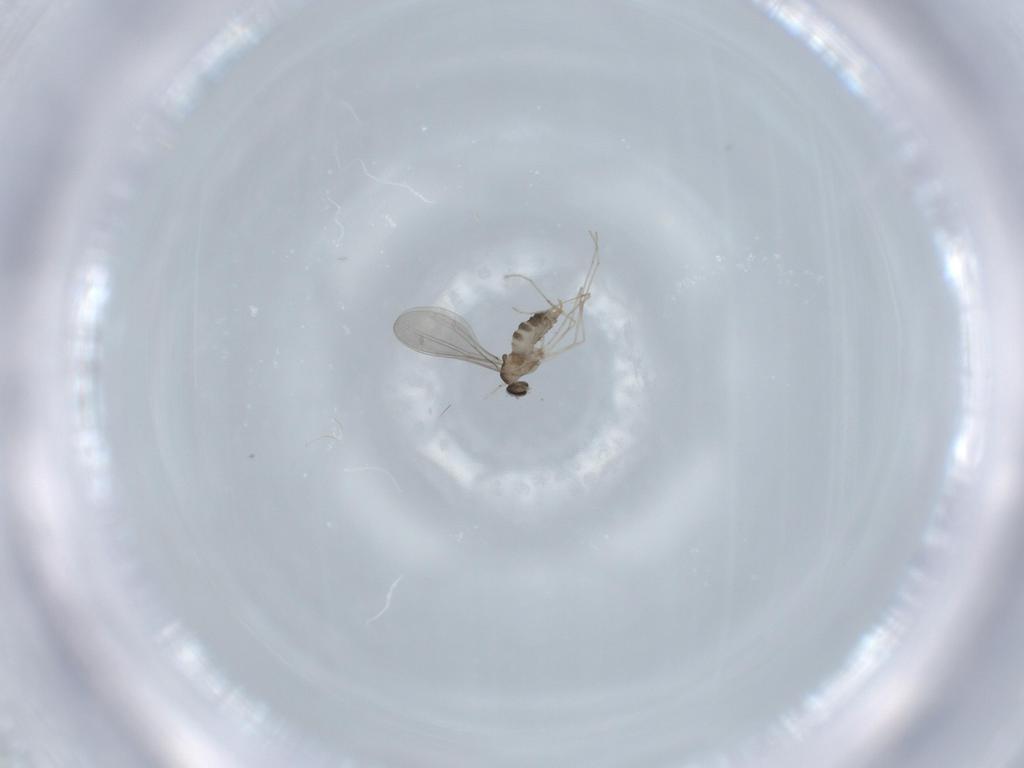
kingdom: Animalia
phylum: Arthropoda
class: Insecta
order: Diptera
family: Cecidomyiidae
